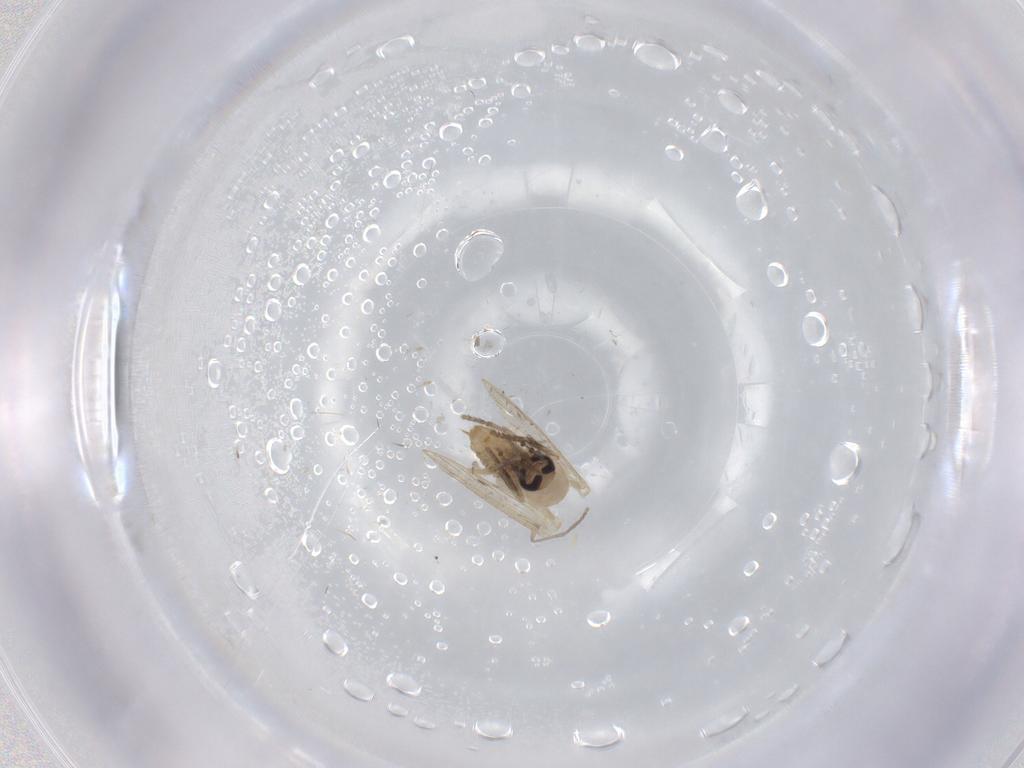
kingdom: Animalia
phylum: Arthropoda
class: Insecta
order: Diptera
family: Psychodidae
